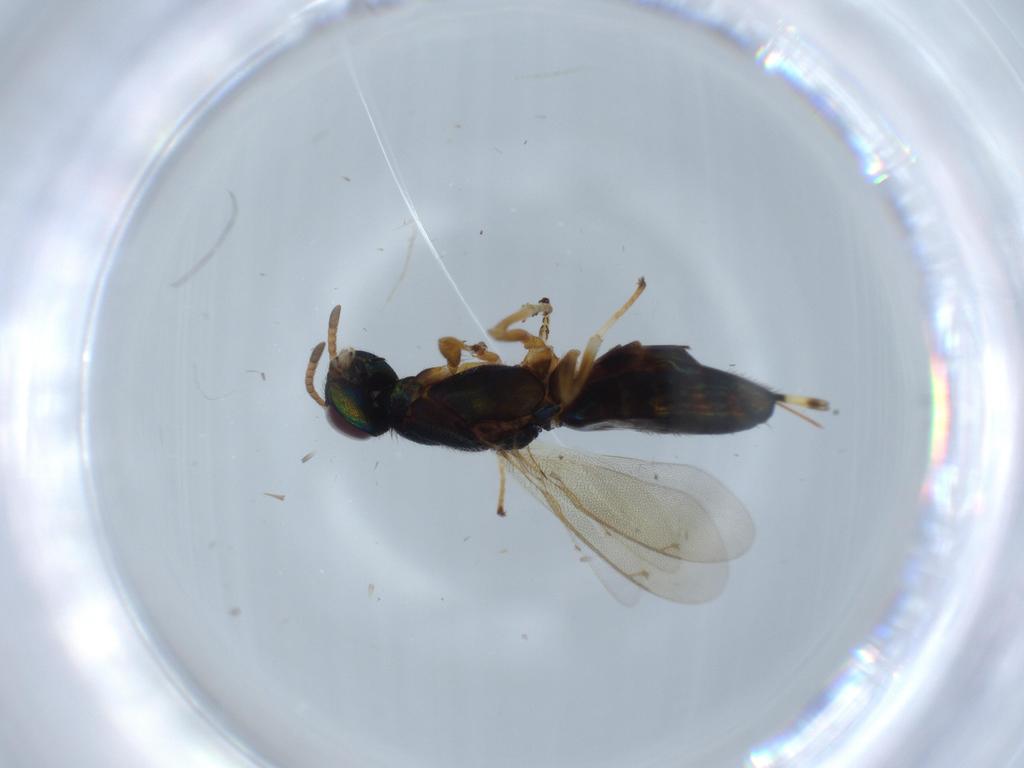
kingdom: Animalia
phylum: Arthropoda
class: Insecta
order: Hymenoptera
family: Eupelmidae
